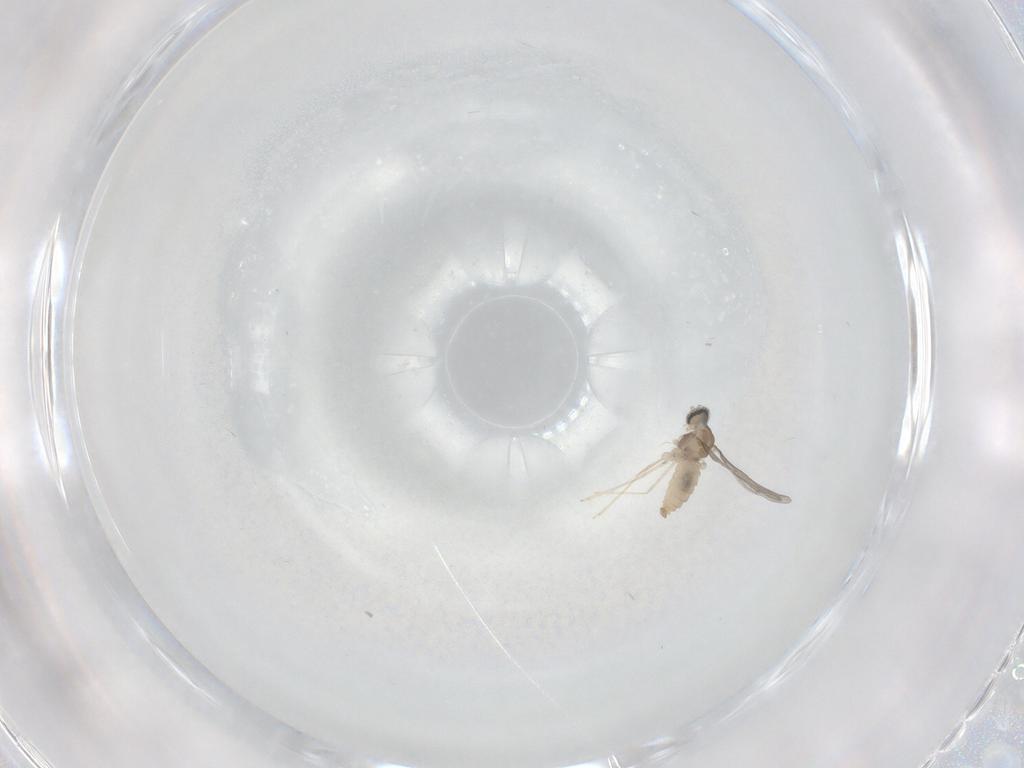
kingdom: Animalia
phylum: Arthropoda
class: Insecta
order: Diptera
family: Cecidomyiidae
